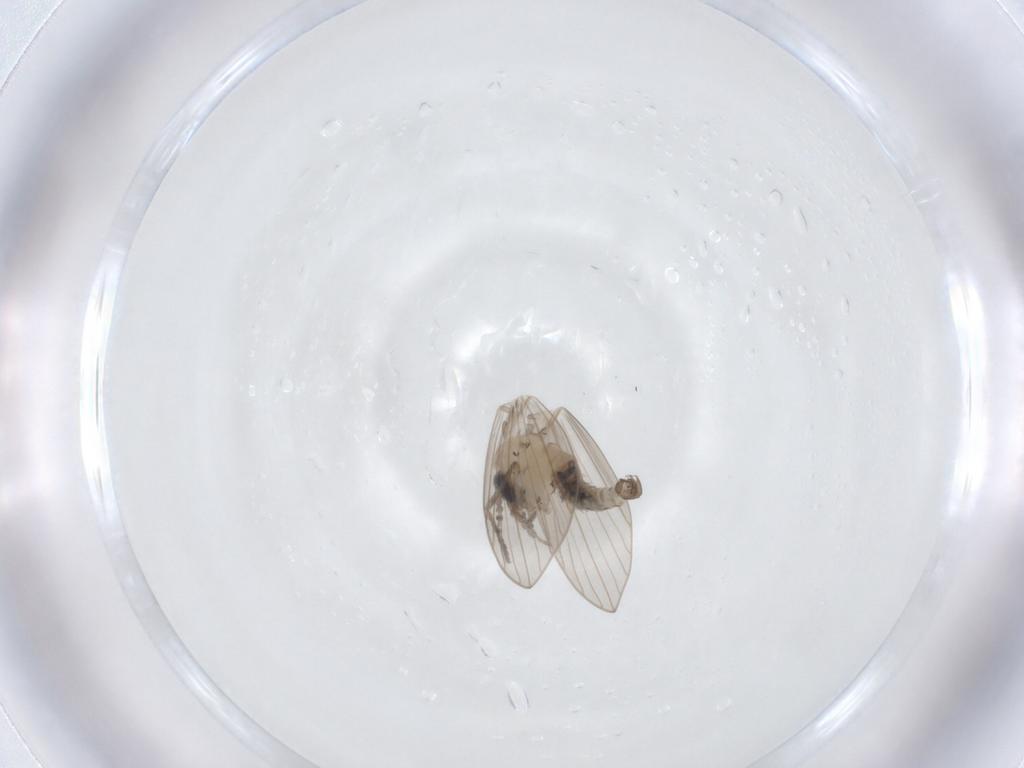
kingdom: Animalia
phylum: Arthropoda
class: Insecta
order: Diptera
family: Psychodidae
